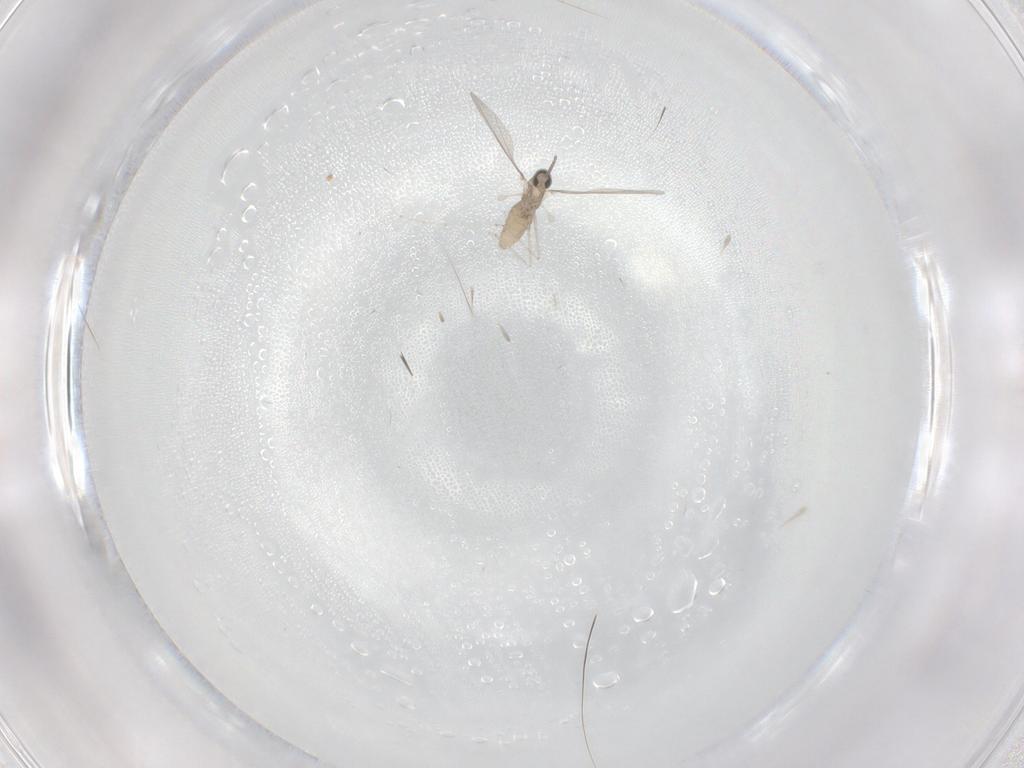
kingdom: Animalia
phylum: Arthropoda
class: Insecta
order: Diptera
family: Chironomidae
